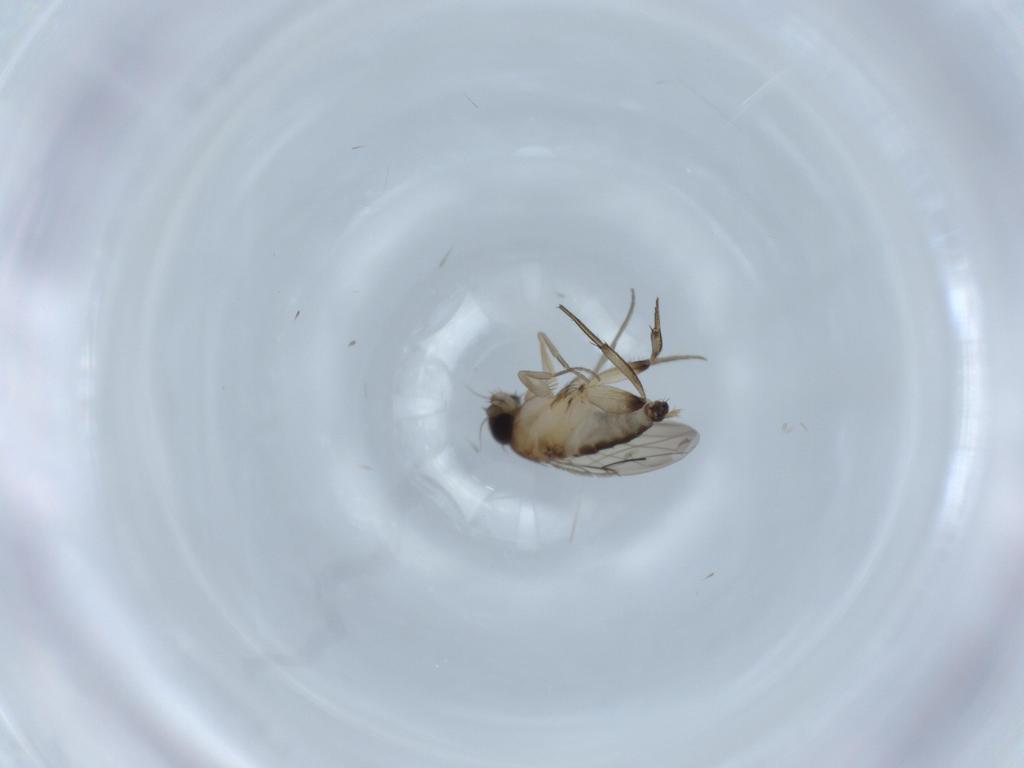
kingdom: Animalia
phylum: Arthropoda
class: Insecta
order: Diptera
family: Phoridae
